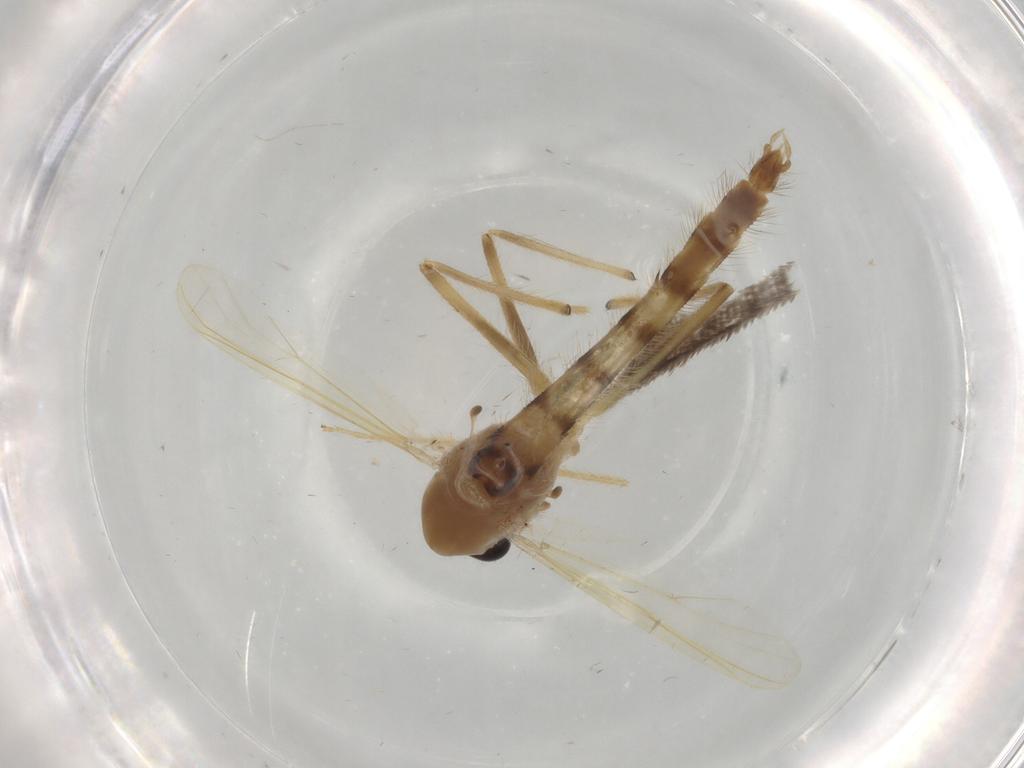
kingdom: Animalia
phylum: Arthropoda
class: Insecta
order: Diptera
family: Chironomidae
